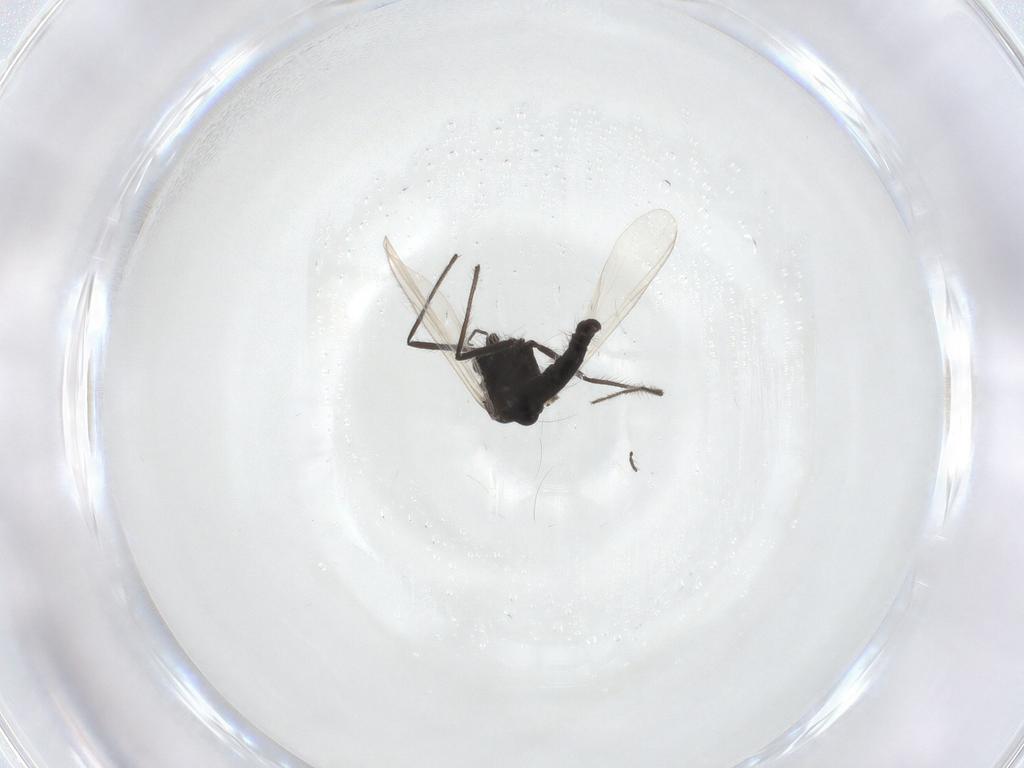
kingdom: Animalia
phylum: Arthropoda
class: Insecta
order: Diptera
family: Chironomidae
